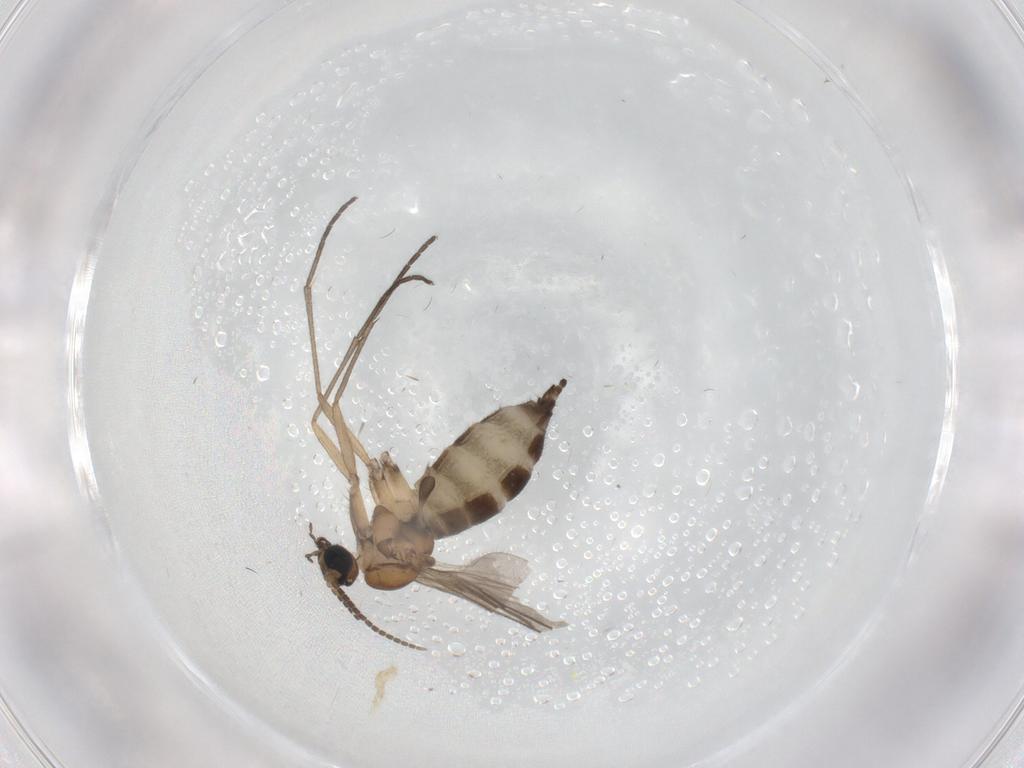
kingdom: Animalia
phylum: Arthropoda
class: Insecta
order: Diptera
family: Sciaridae
